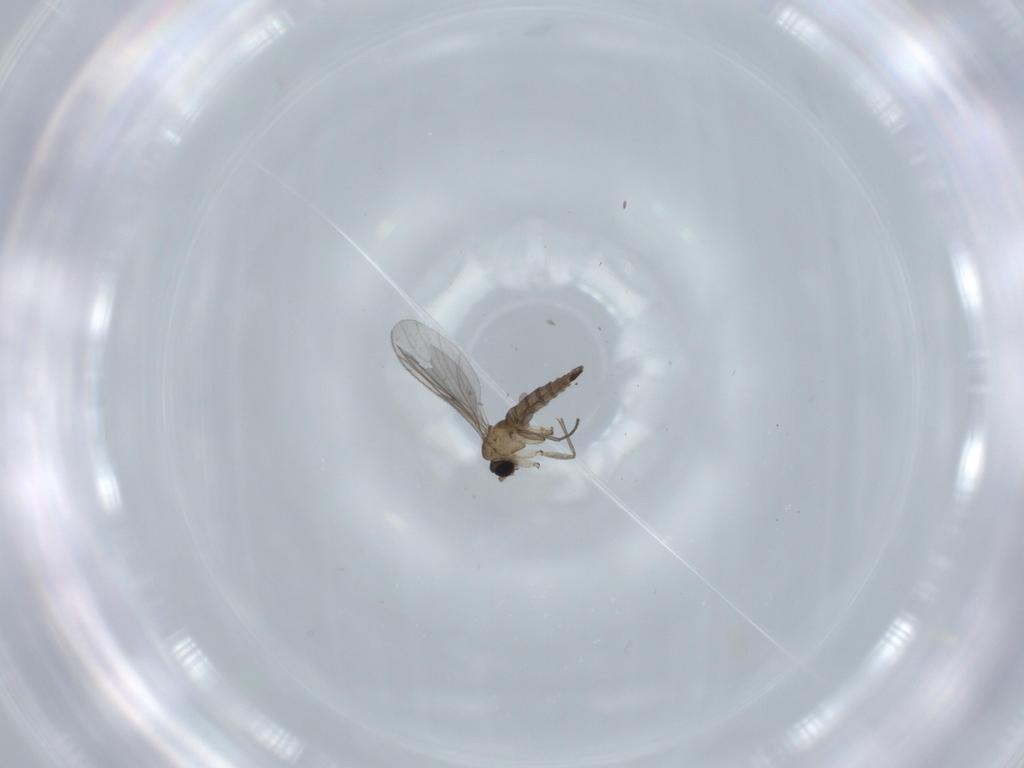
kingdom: Animalia
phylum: Arthropoda
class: Insecta
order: Diptera
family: Sciaridae
